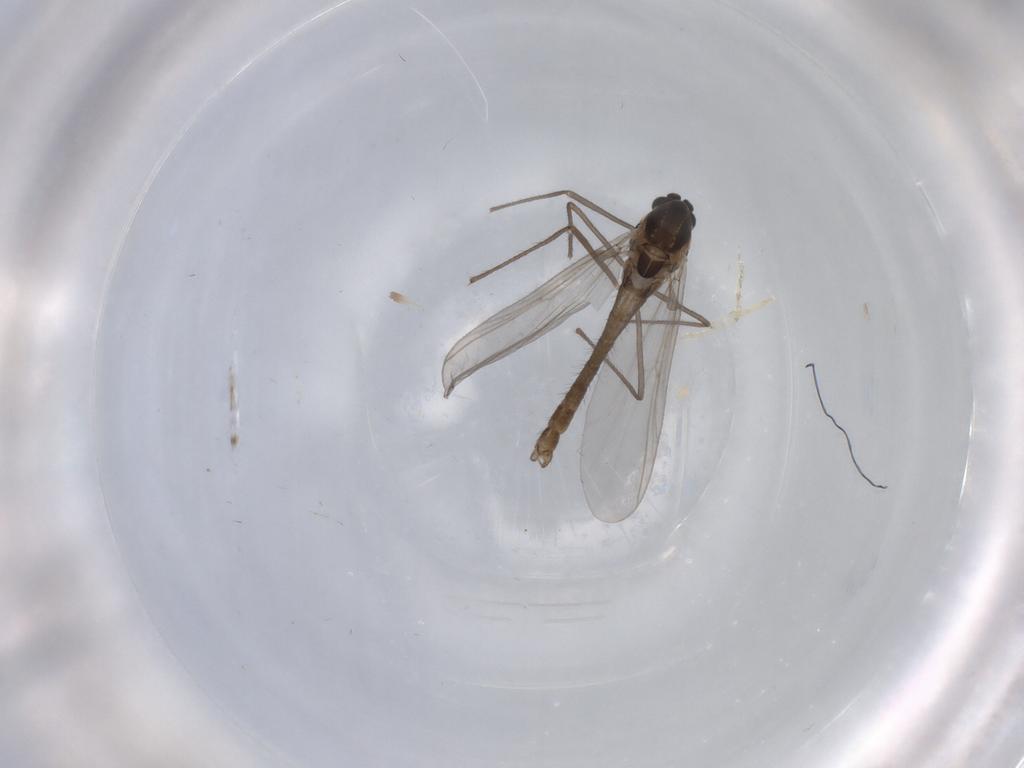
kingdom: Animalia
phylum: Arthropoda
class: Insecta
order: Diptera
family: Chironomidae
